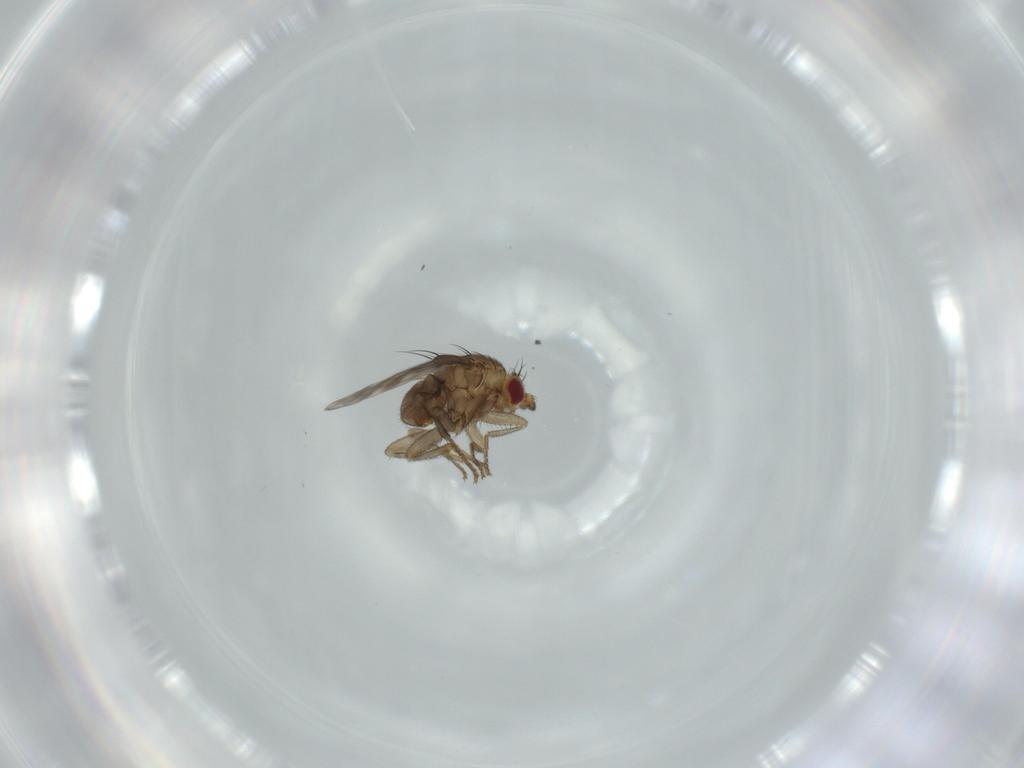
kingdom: Animalia
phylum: Arthropoda
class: Insecta
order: Diptera
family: Sphaeroceridae
